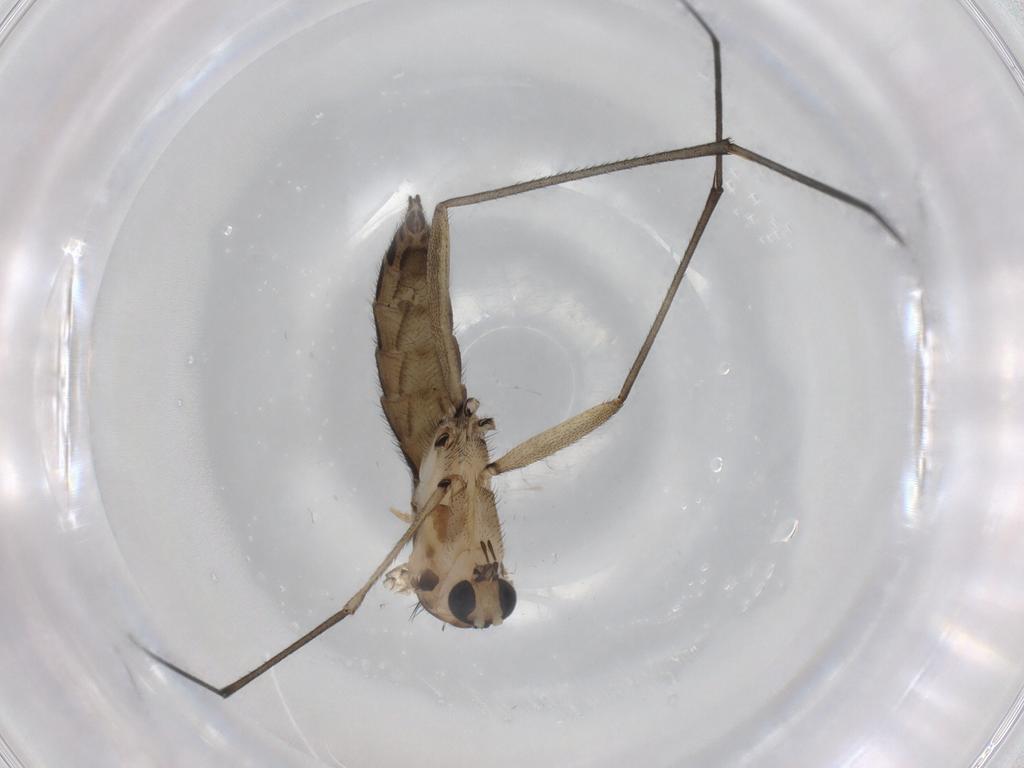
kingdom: Animalia
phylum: Arthropoda
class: Insecta
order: Diptera
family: Sciaridae
